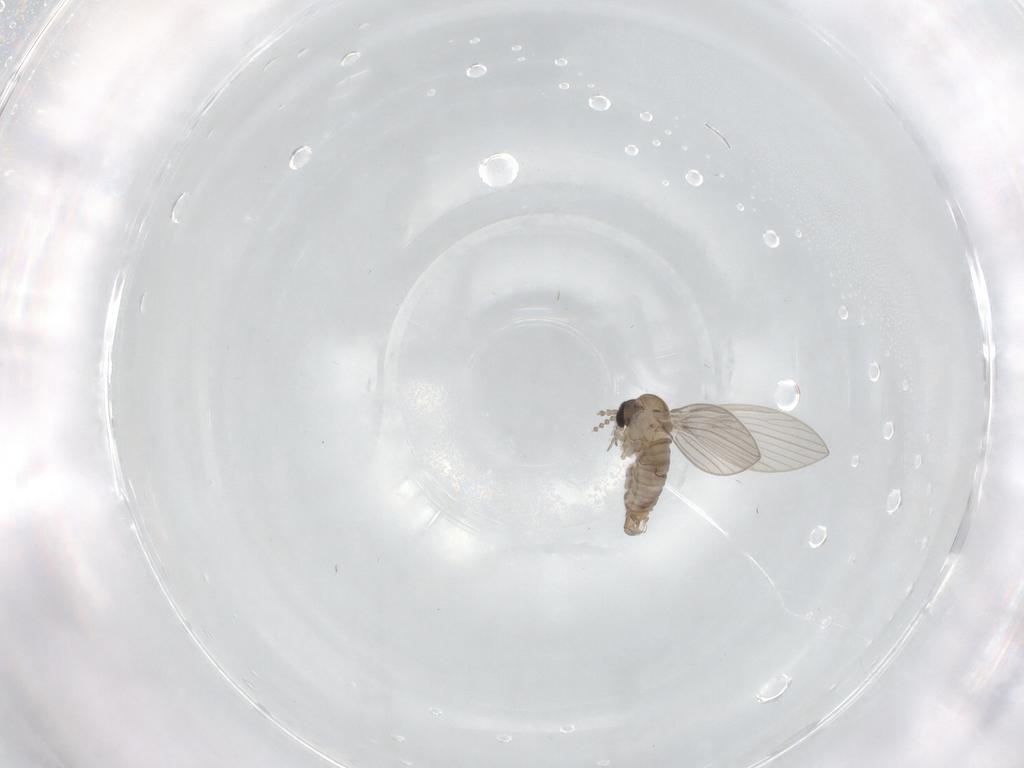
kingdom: Animalia
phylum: Arthropoda
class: Insecta
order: Diptera
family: Psychodidae
